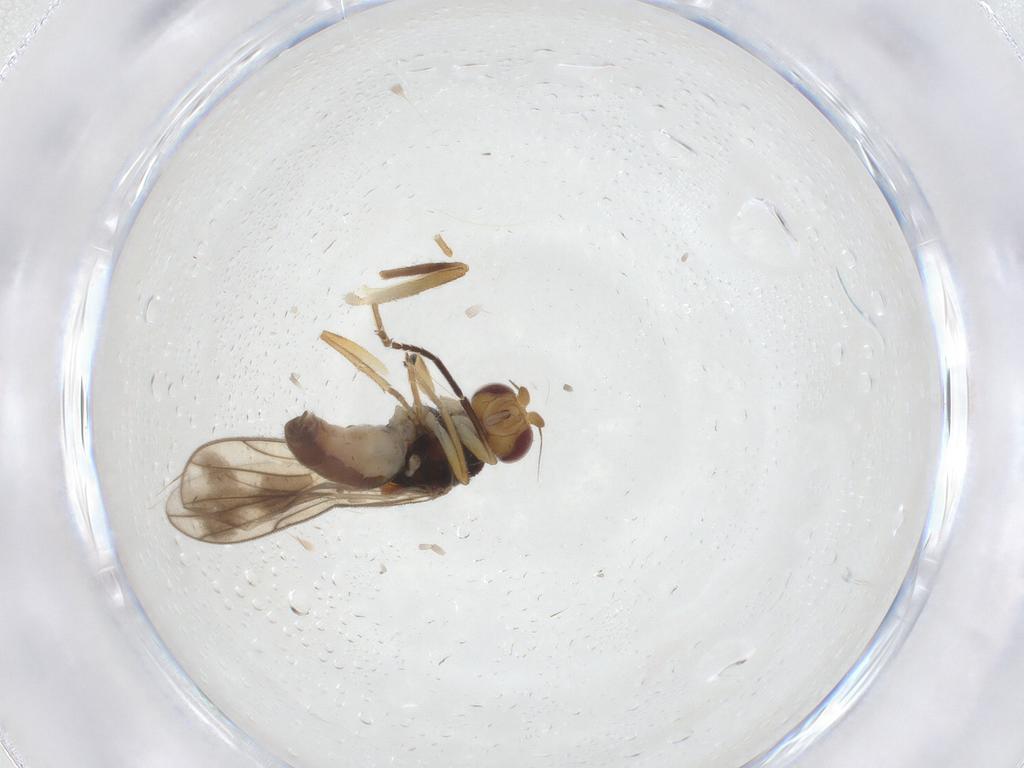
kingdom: Animalia
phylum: Arthropoda
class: Insecta
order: Diptera
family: Chloropidae
